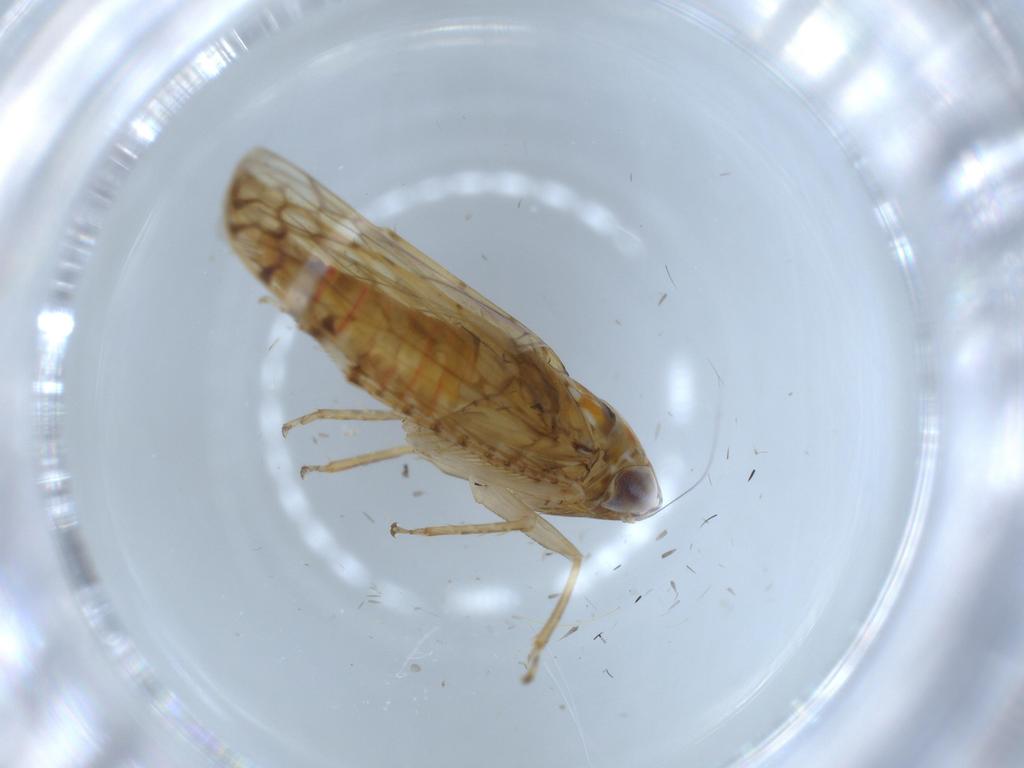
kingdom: Animalia
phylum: Arthropoda
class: Insecta
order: Hemiptera
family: Cicadellidae
